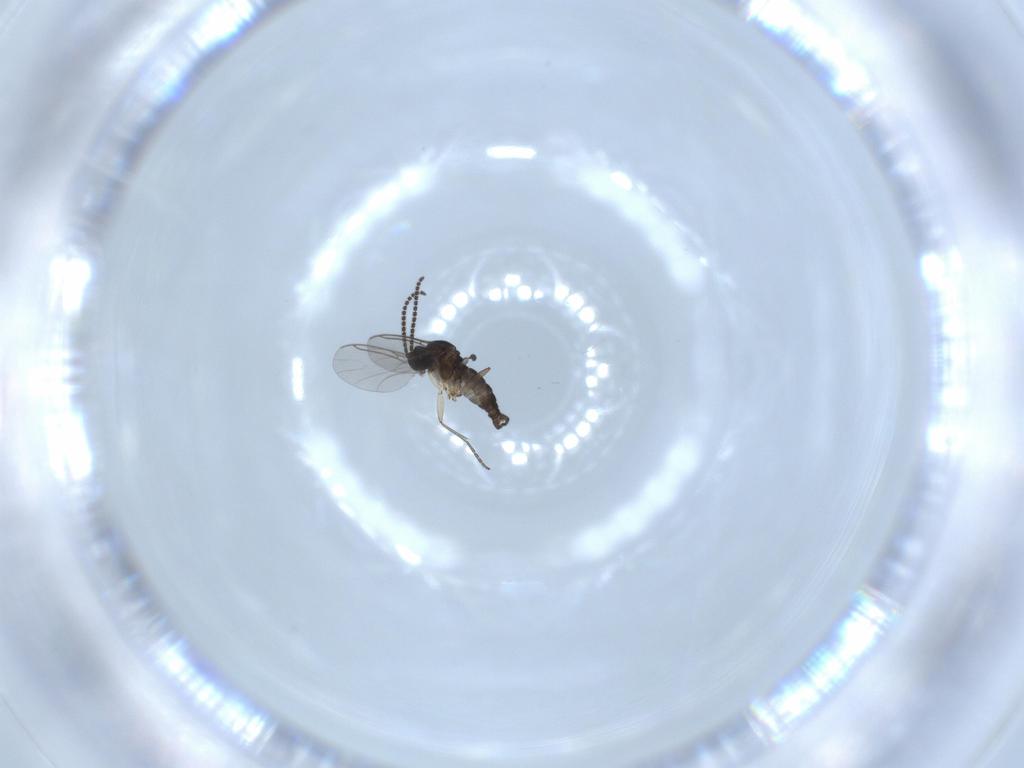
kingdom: Animalia
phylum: Arthropoda
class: Insecta
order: Diptera
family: Sciaridae
